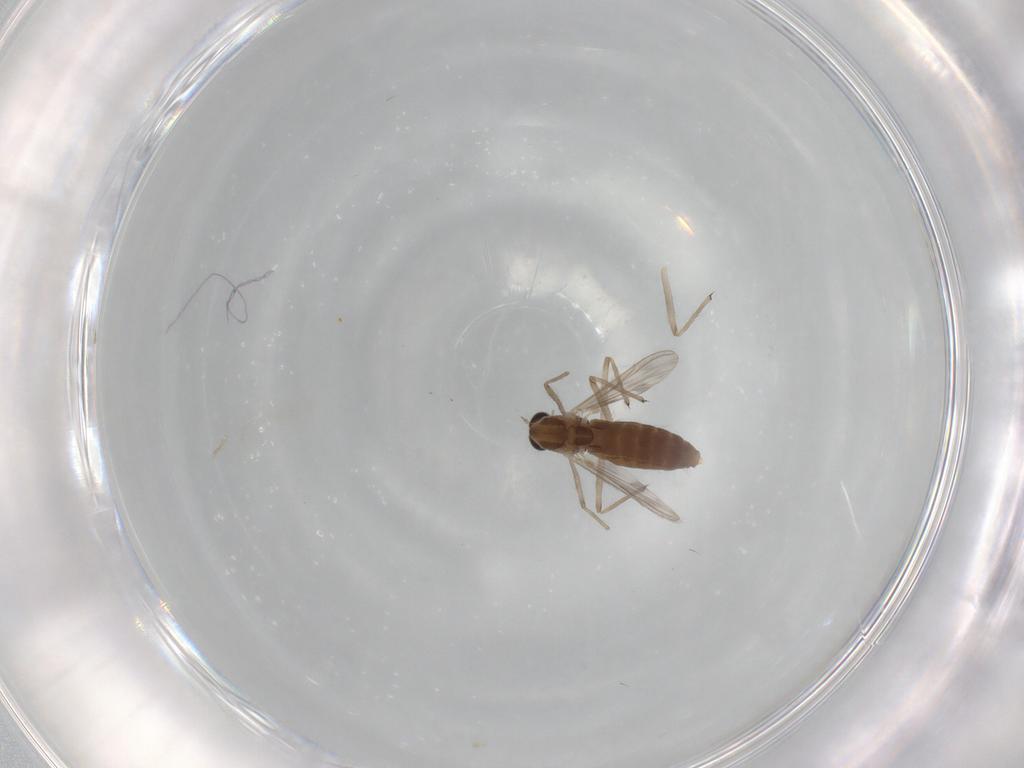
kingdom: Animalia
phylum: Arthropoda
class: Insecta
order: Diptera
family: Chironomidae
